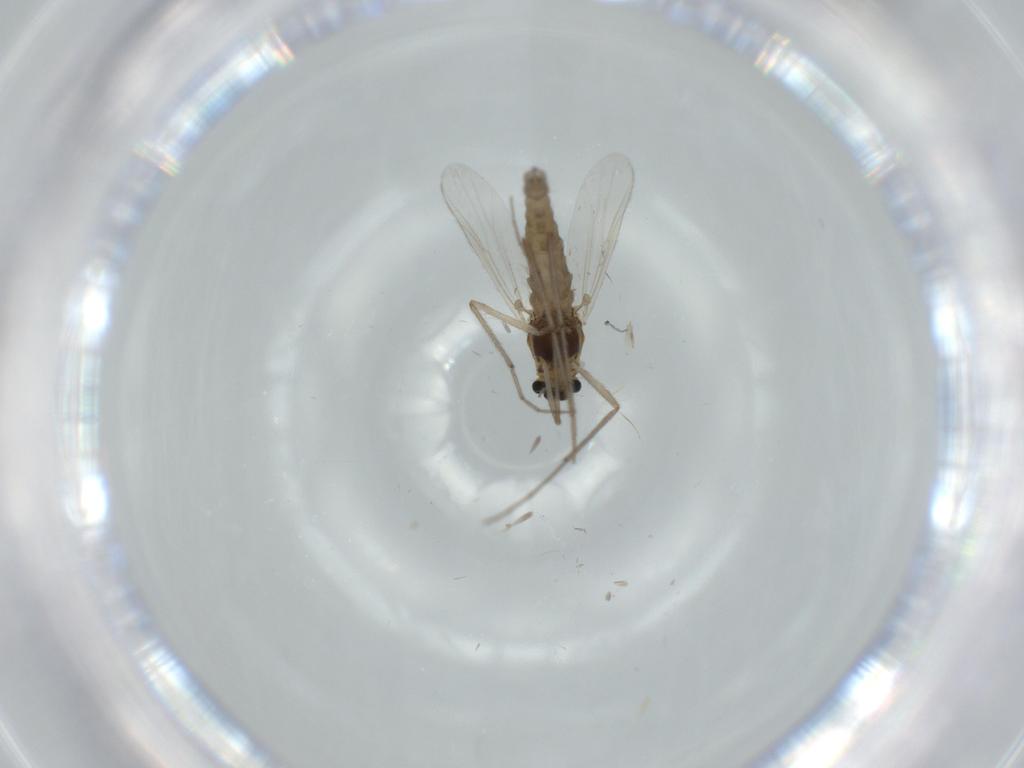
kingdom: Animalia
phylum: Arthropoda
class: Insecta
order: Diptera
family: Chironomidae
